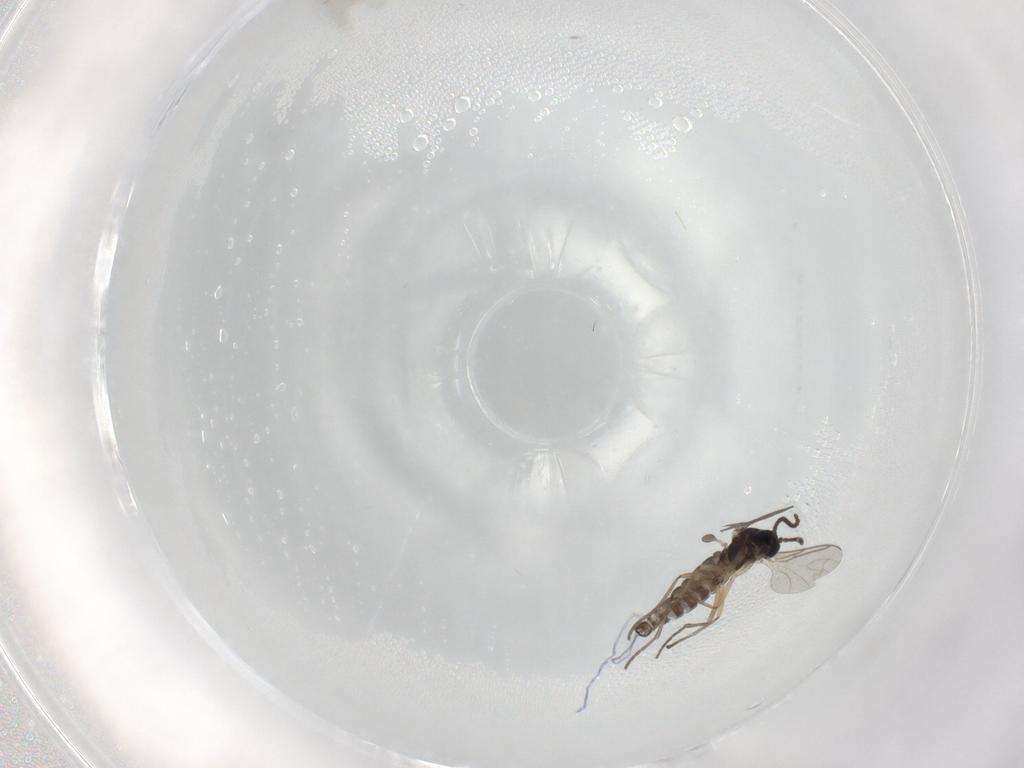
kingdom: Animalia
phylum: Arthropoda
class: Insecta
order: Diptera
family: Sciaridae
